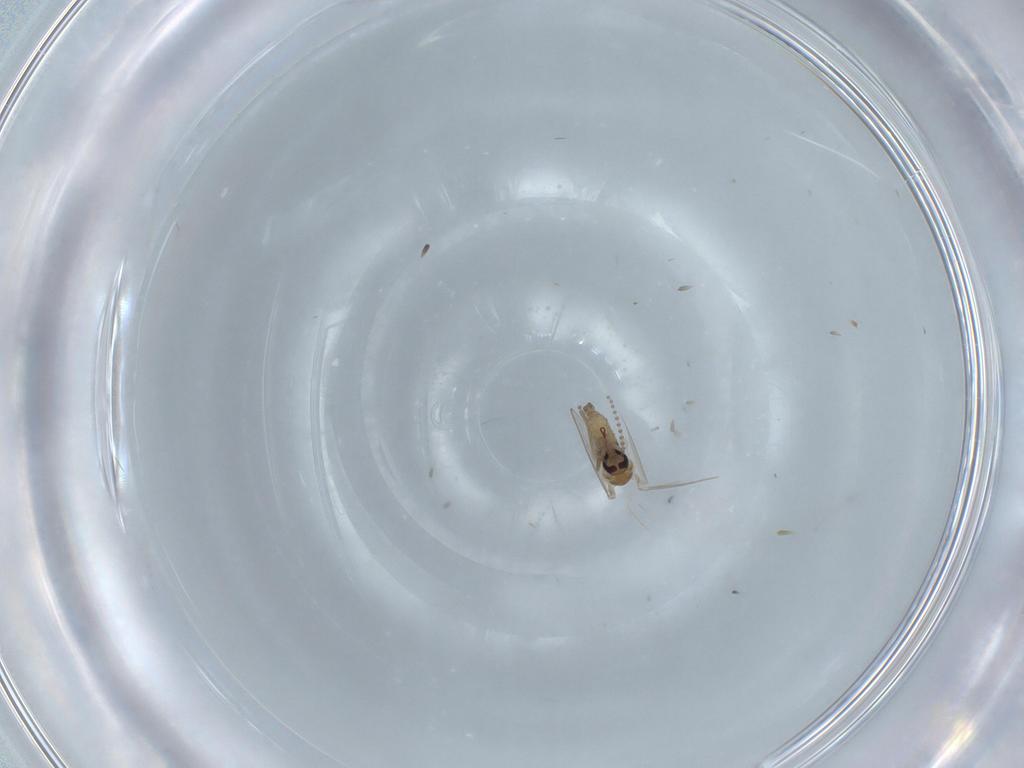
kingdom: Animalia
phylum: Arthropoda
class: Insecta
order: Diptera
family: Psychodidae
